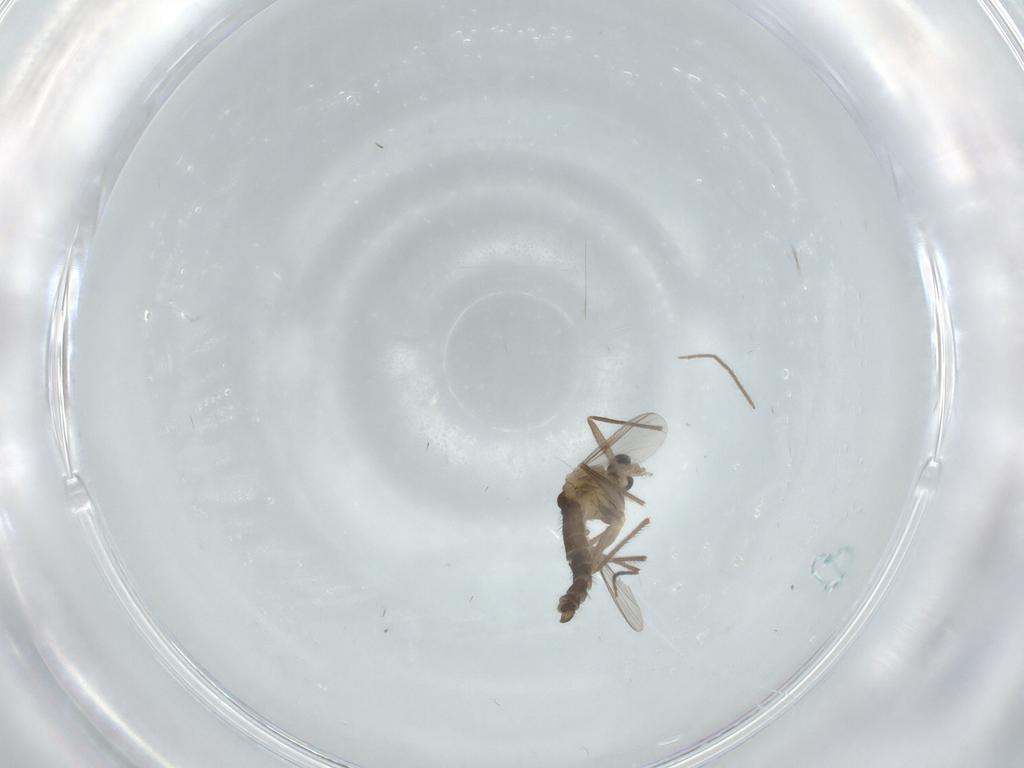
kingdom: Animalia
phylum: Arthropoda
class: Insecta
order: Diptera
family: Chironomidae
